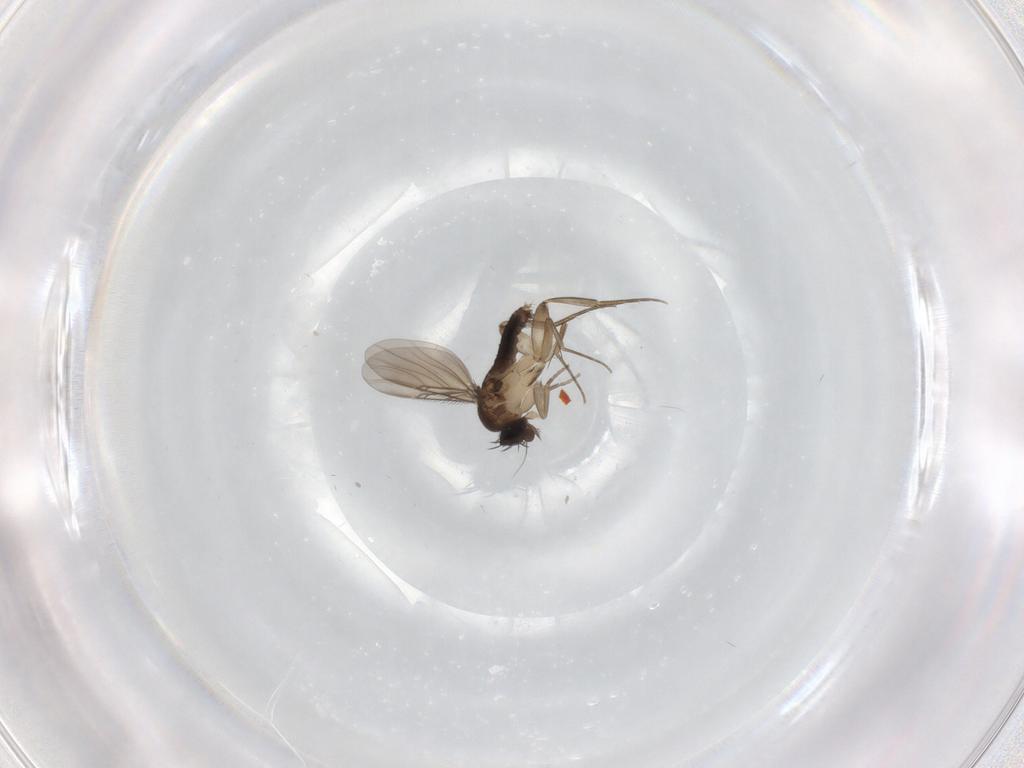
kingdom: Animalia
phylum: Arthropoda
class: Insecta
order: Diptera
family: Phoridae
